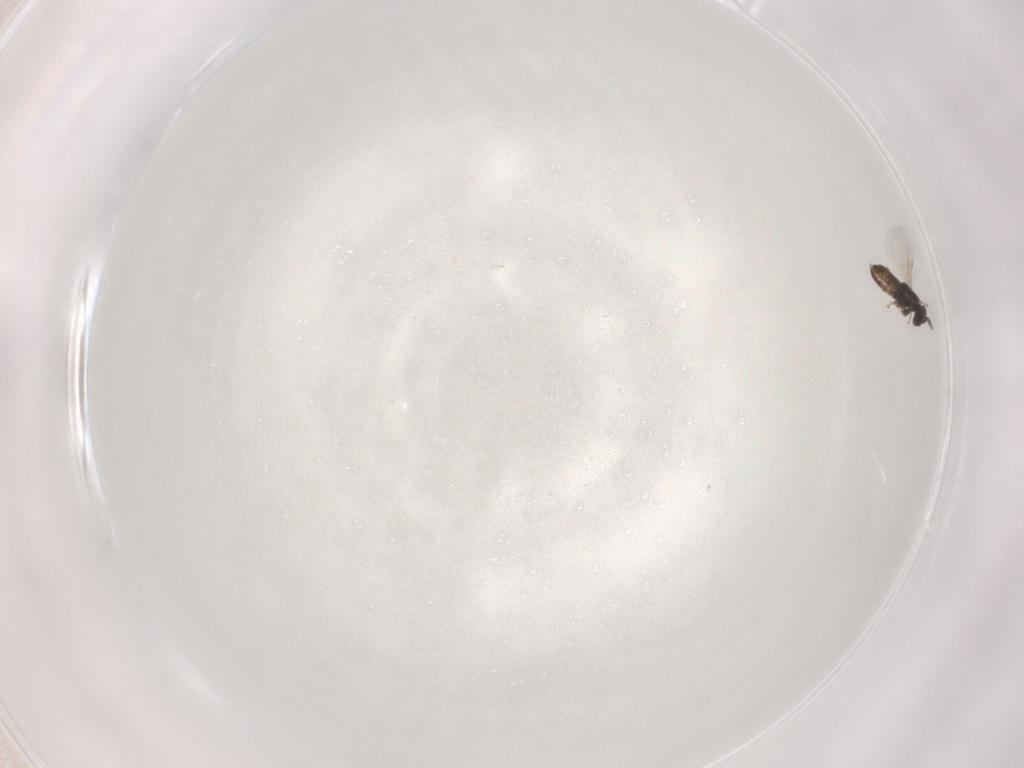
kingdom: Animalia
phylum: Arthropoda
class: Insecta
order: Hymenoptera
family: Encyrtidae
